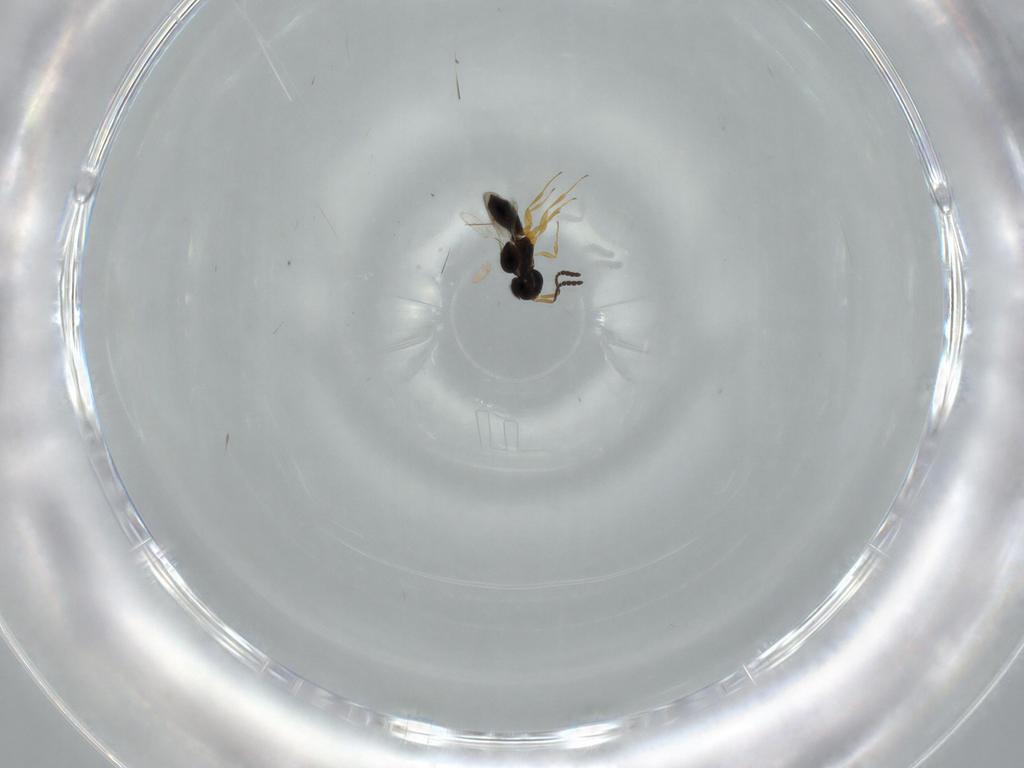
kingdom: Animalia
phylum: Arthropoda
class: Insecta
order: Hymenoptera
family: Scelionidae
